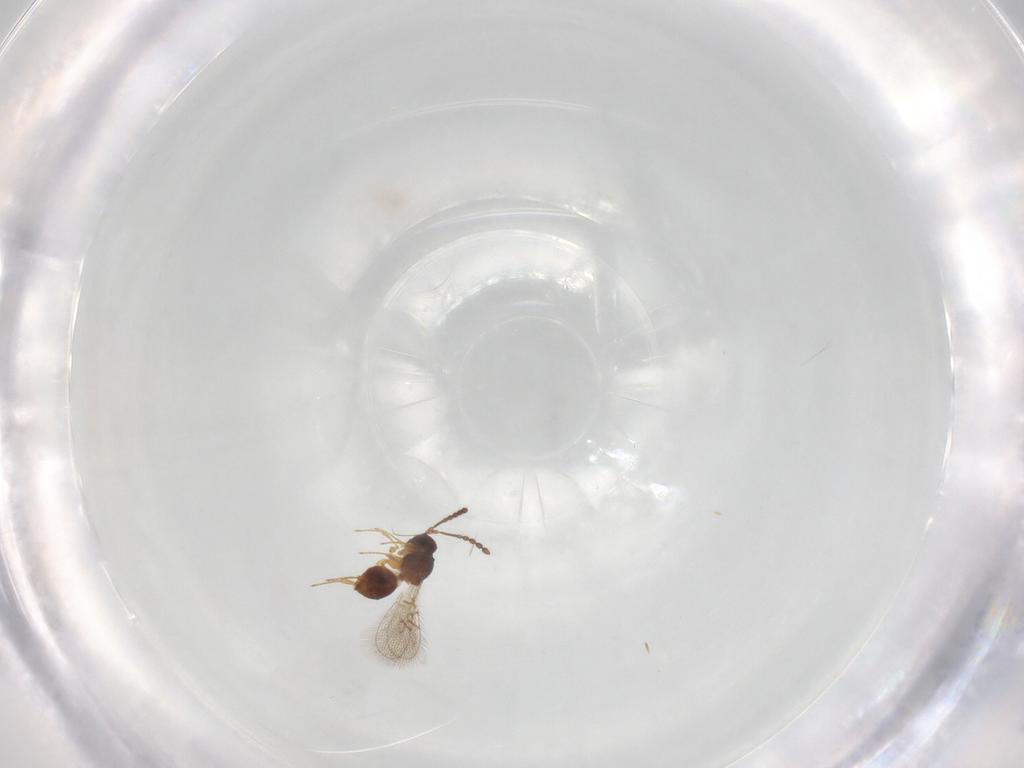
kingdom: Animalia
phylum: Arthropoda
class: Insecta
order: Hymenoptera
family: Figitidae
